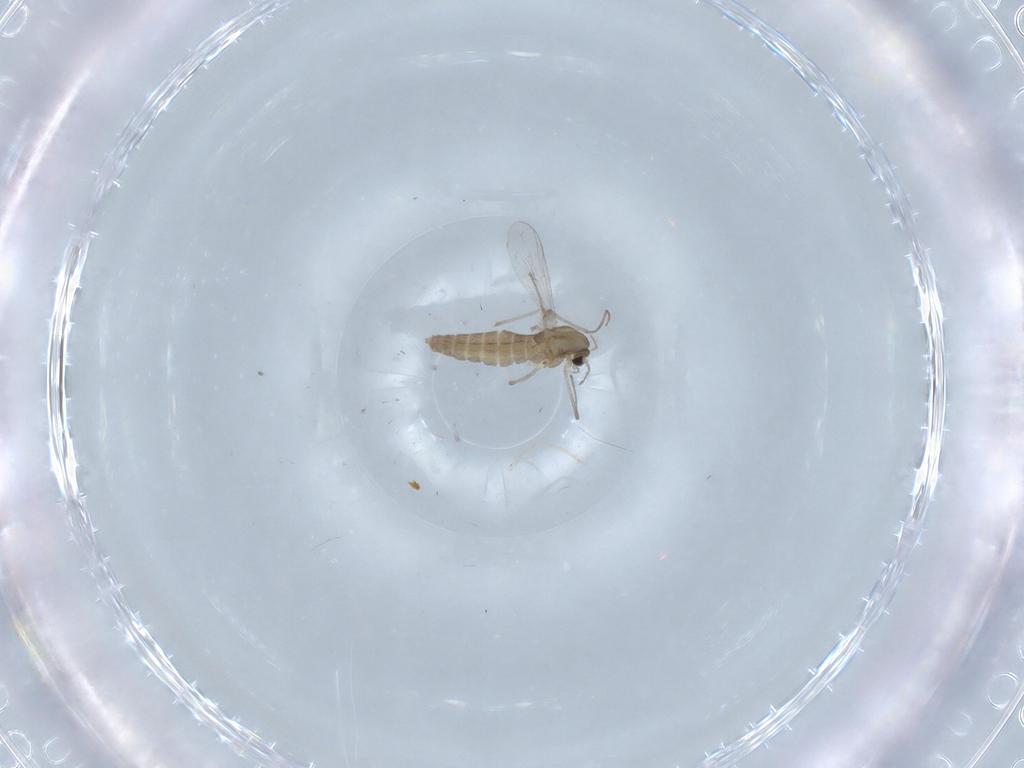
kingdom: Animalia
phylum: Arthropoda
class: Insecta
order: Diptera
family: Chironomidae
